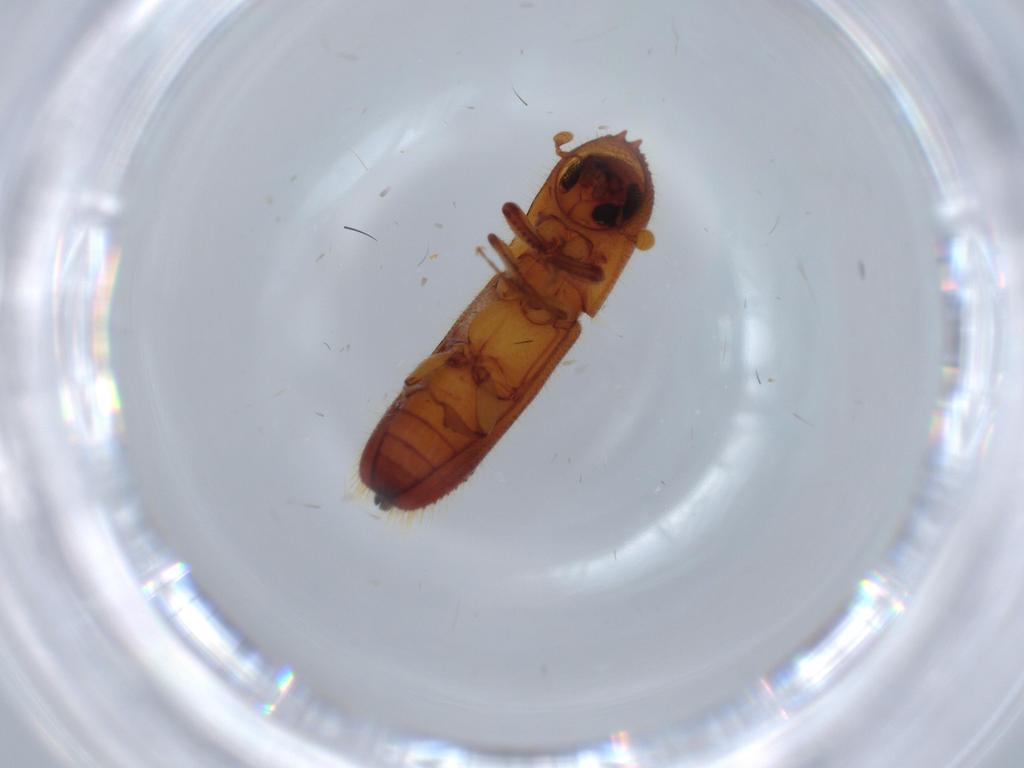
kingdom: Animalia
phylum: Arthropoda
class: Insecta
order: Coleoptera
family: Curculionidae
